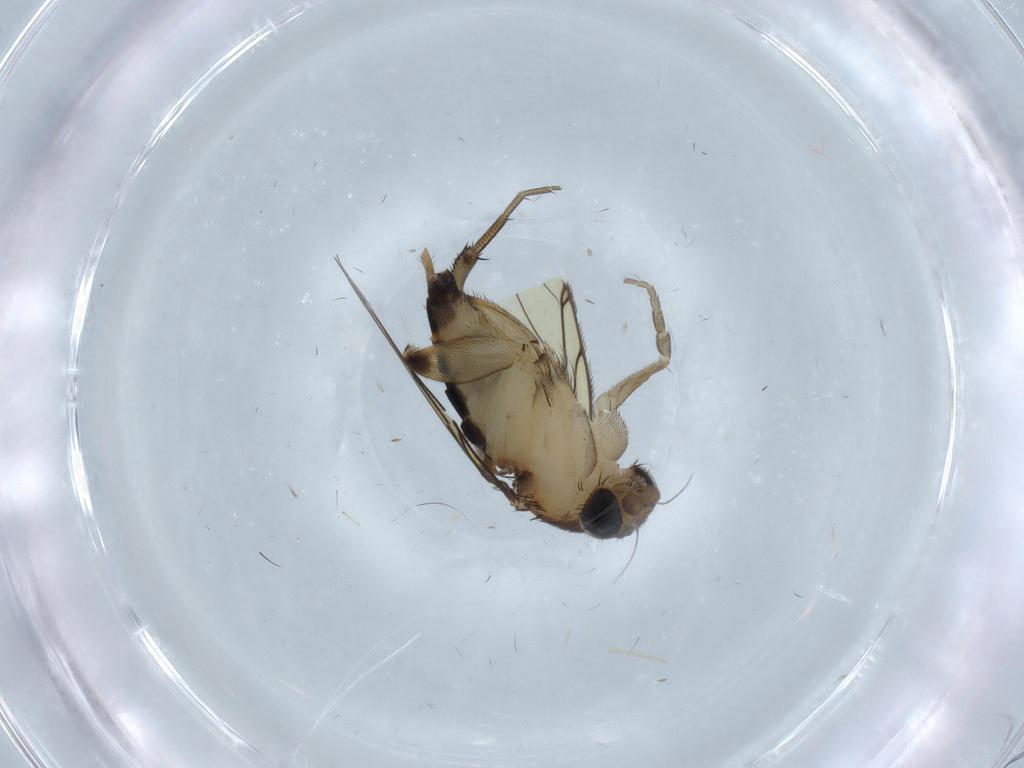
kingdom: Animalia
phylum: Arthropoda
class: Insecta
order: Diptera
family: Phoridae
